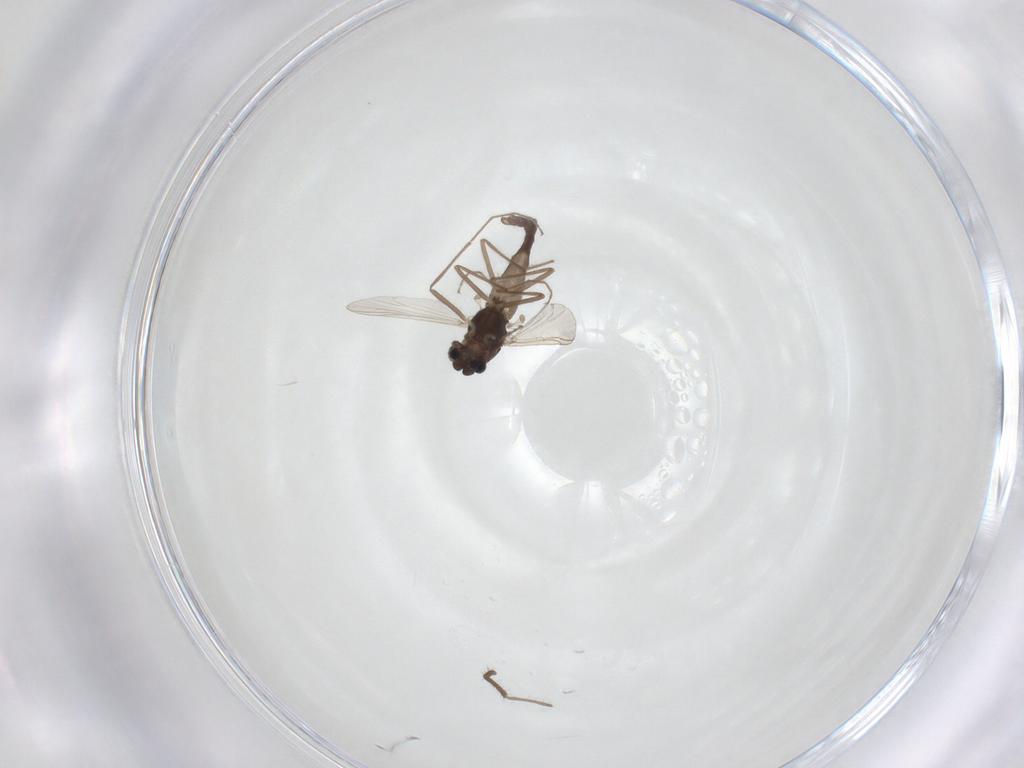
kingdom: Animalia
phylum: Arthropoda
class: Insecta
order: Diptera
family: Chironomidae
